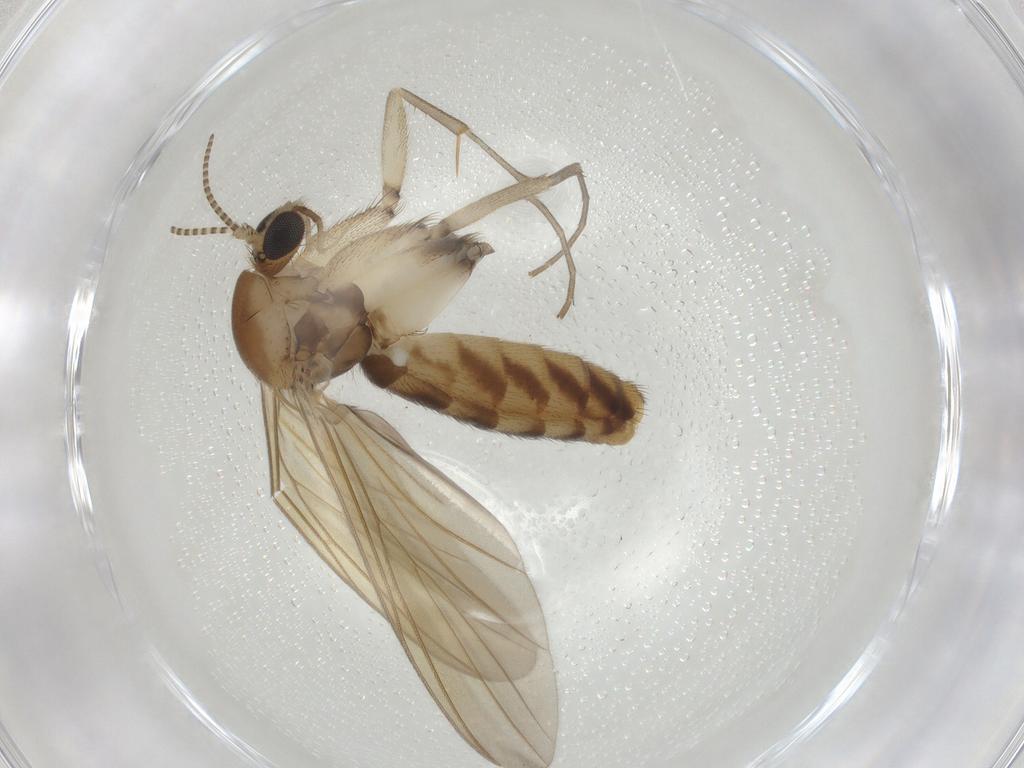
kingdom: Animalia
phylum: Arthropoda
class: Insecta
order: Diptera
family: Mycetophilidae
